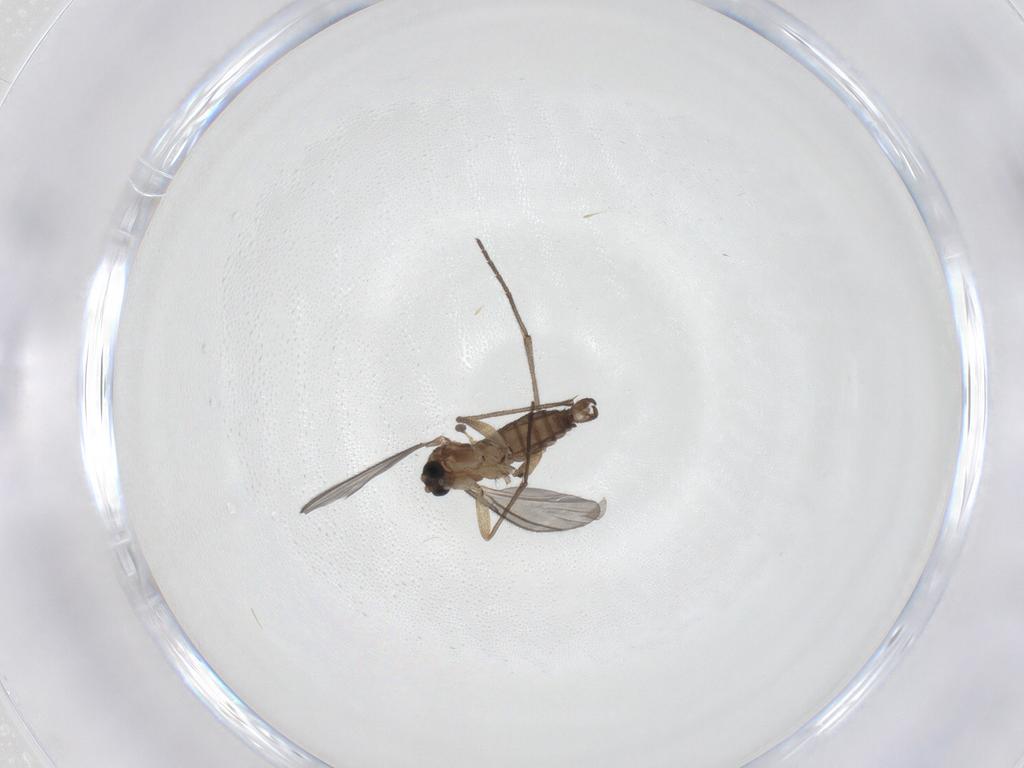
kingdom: Animalia
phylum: Arthropoda
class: Insecta
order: Diptera
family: Sciaridae
